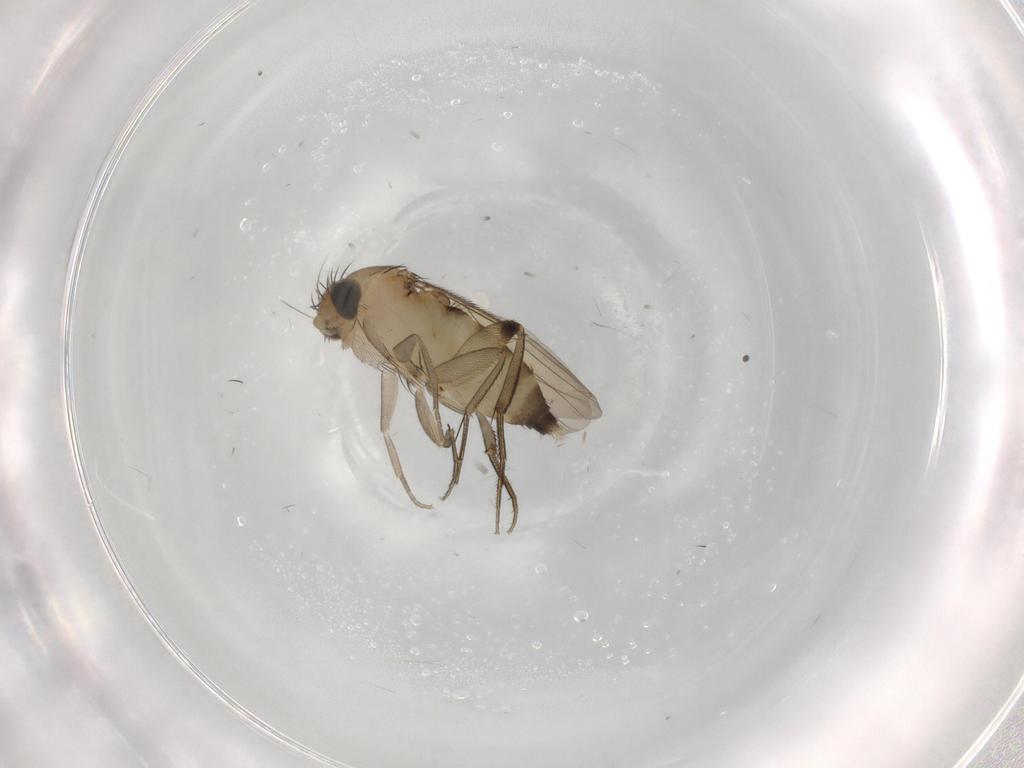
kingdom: Animalia
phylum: Arthropoda
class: Insecta
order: Diptera
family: Phoridae
